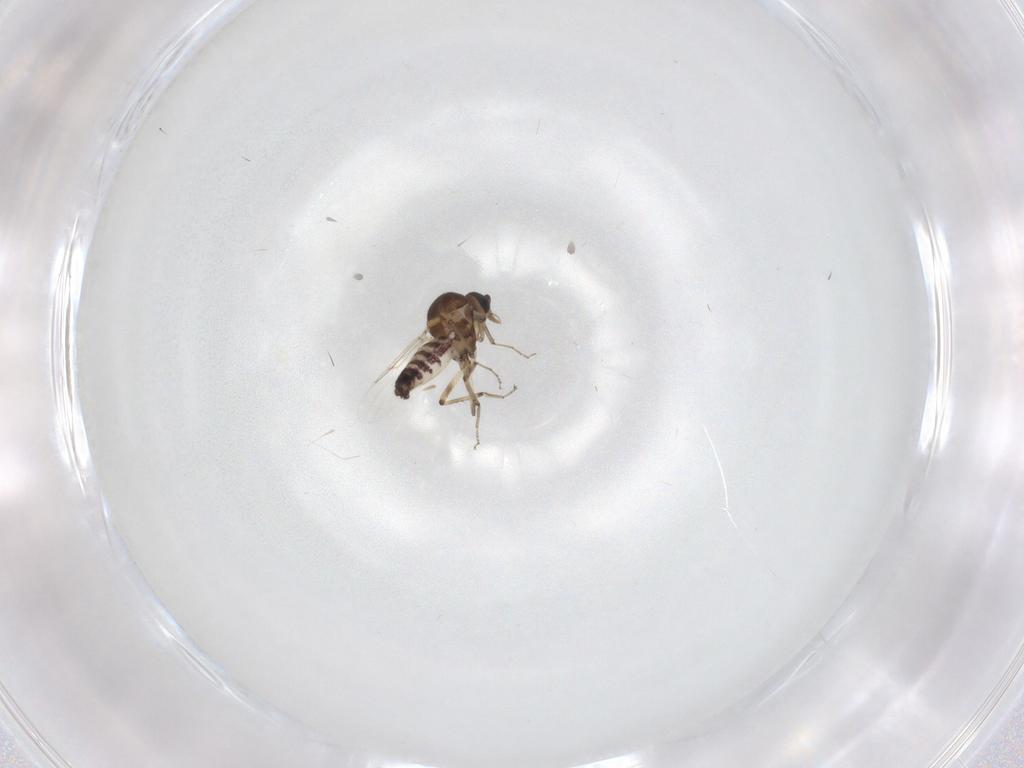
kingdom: Animalia
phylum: Arthropoda
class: Insecta
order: Diptera
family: Ceratopogonidae
